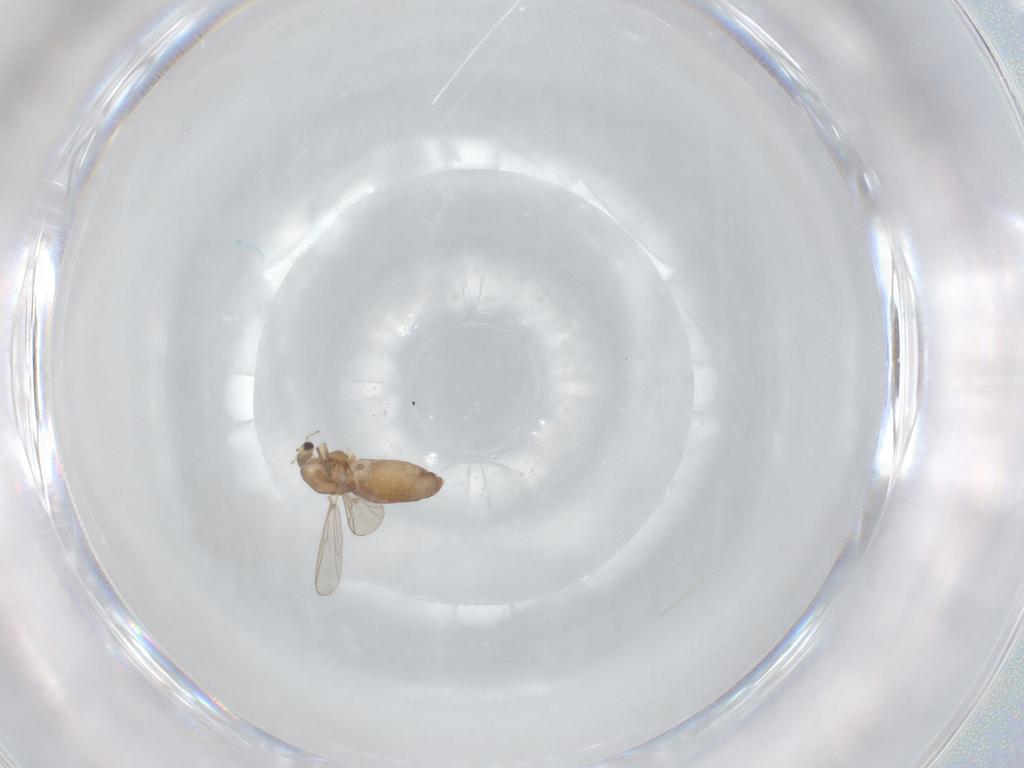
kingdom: Animalia
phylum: Arthropoda
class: Insecta
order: Diptera
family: Chironomidae
